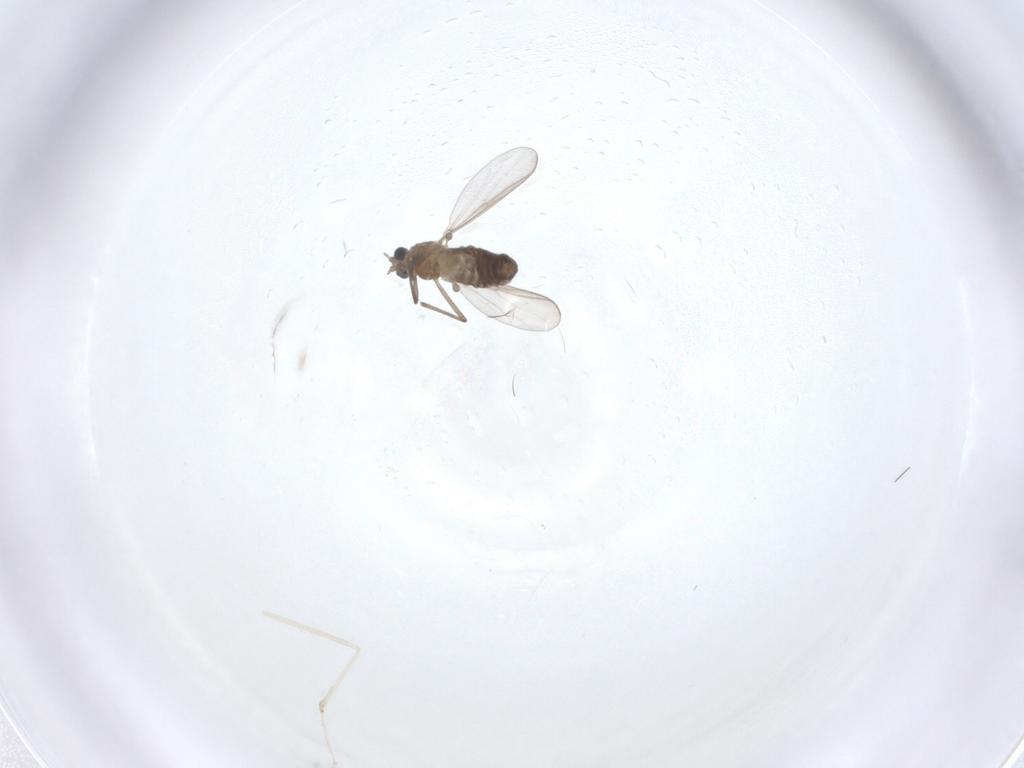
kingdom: Animalia
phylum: Arthropoda
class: Insecta
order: Diptera
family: Chironomidae
